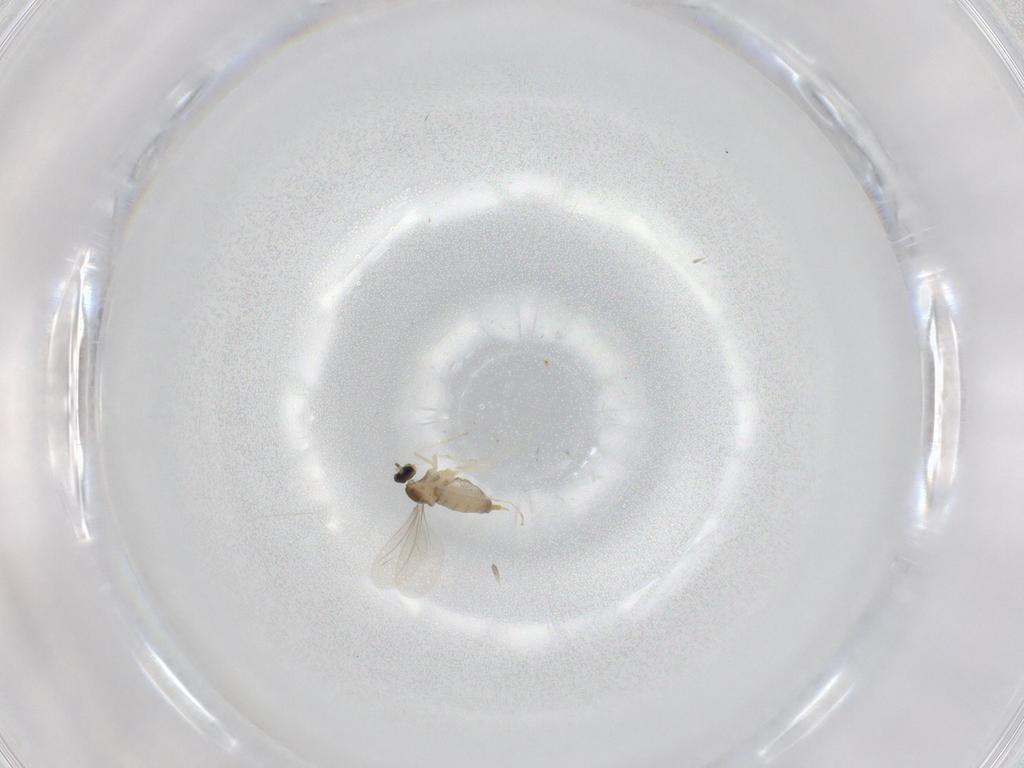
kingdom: Animalia
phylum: Arthropoda
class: Insecta
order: Diptera
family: Cecidomyiidae
